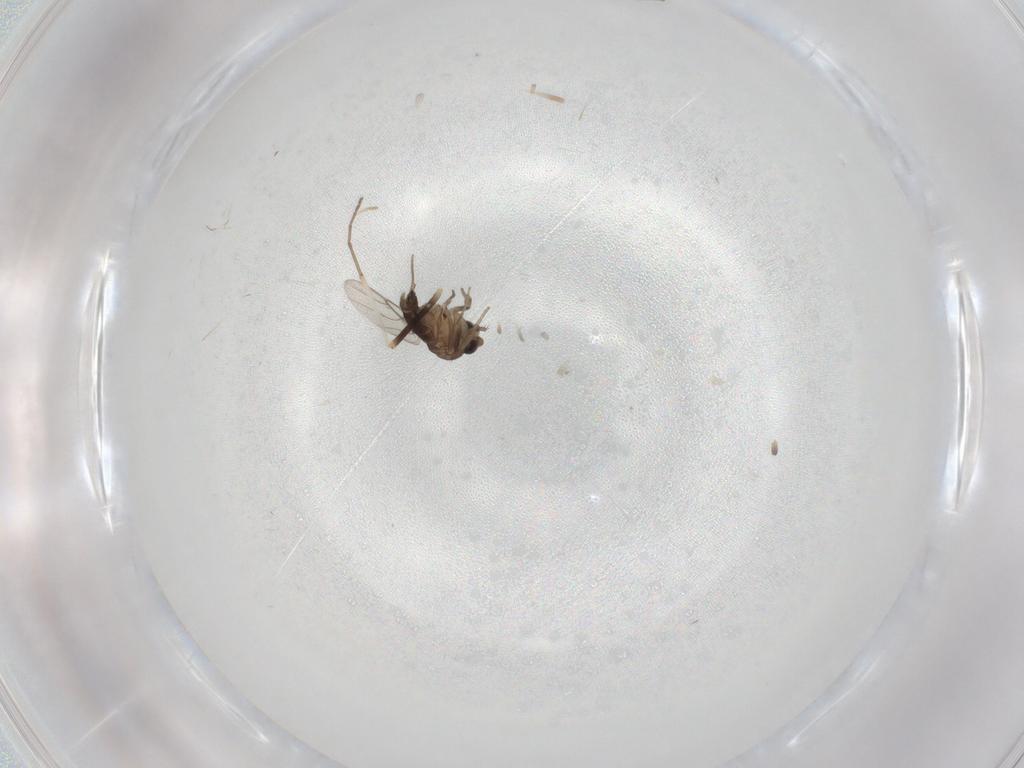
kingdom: Animalia
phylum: Arthropoda
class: Insecta
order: Diptera
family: Phoridae
